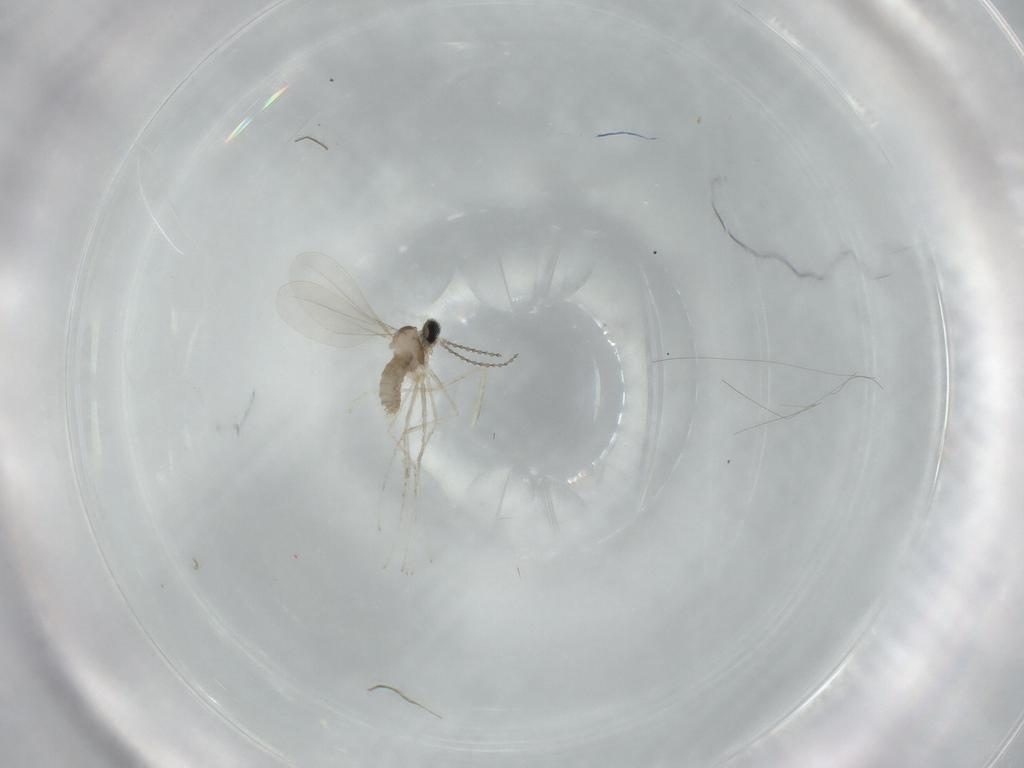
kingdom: Animalia
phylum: Arthropoda
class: Insecta
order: Diptera
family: Cecidomyiidae
